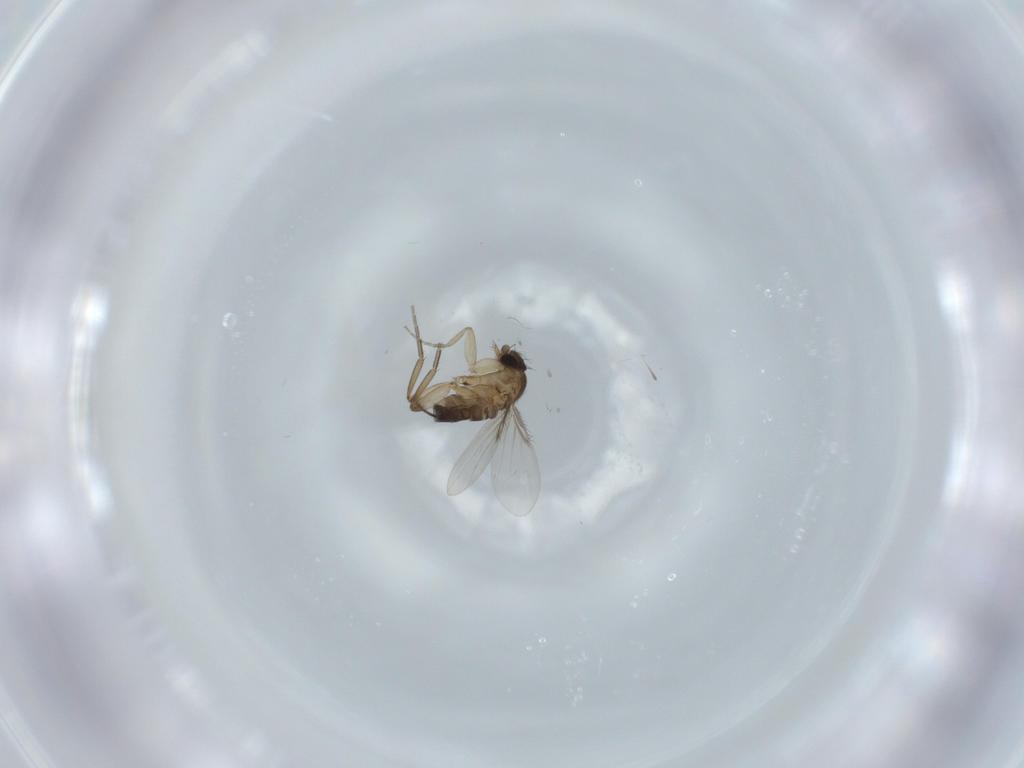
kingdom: Animalia
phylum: Arthropoda
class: Insecta
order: Diptera
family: Phoridae
